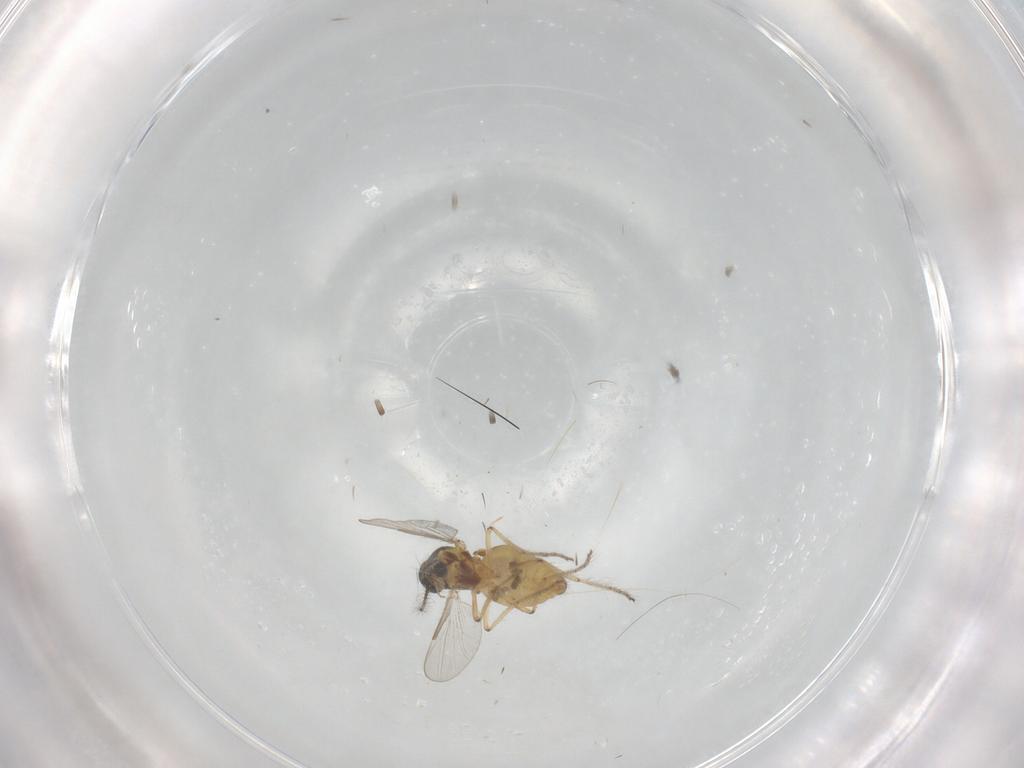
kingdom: Animalia
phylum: Arthropoda
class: Insecta
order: Diptera
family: Ceratopogonidae
